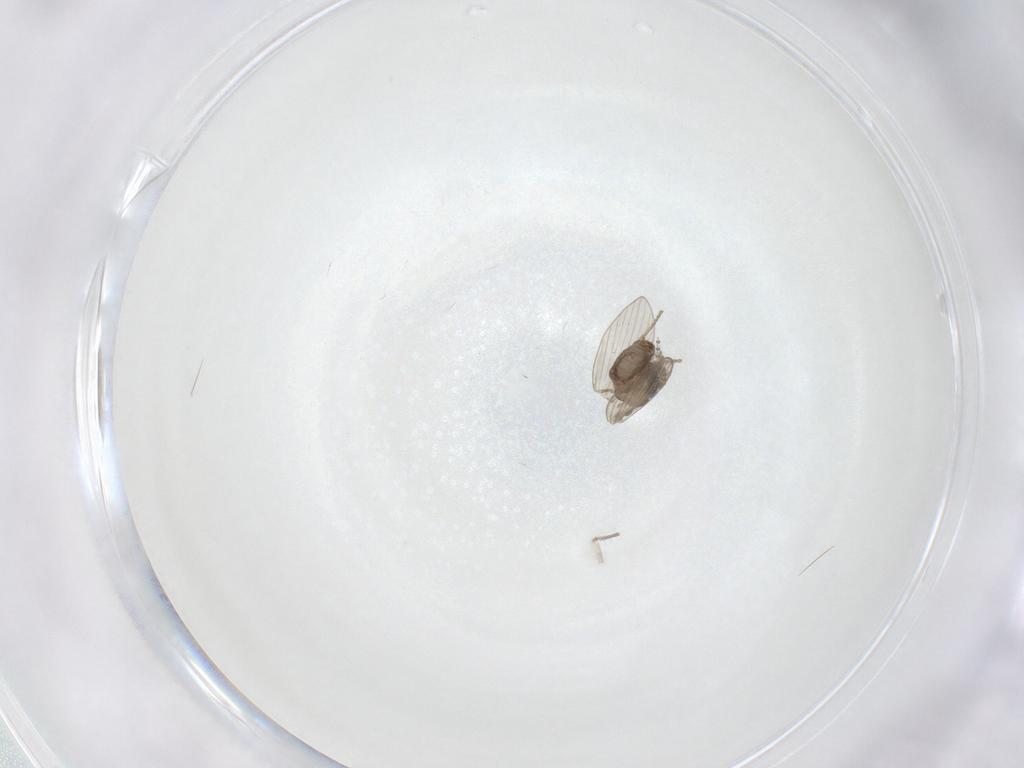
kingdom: Animalia
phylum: Arthropoda
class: Insecta
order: Diptera
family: Psychodidae
